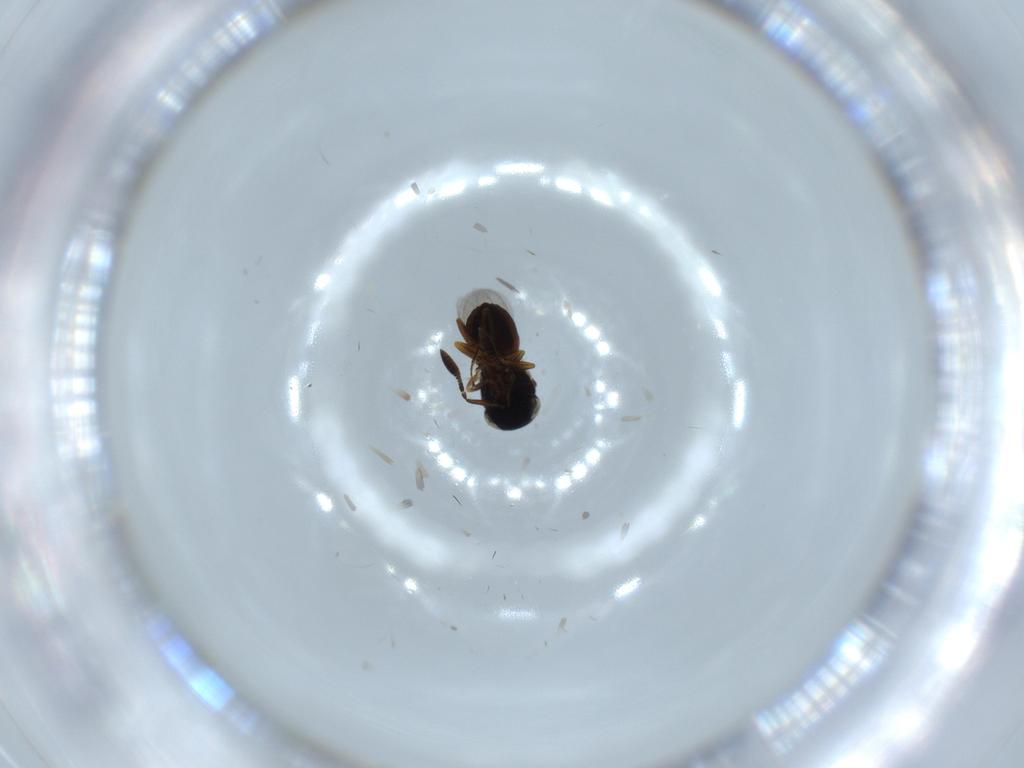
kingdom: Animalia
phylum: Arthropoda
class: Insecta
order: Hymenoptera
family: Scelionidae
